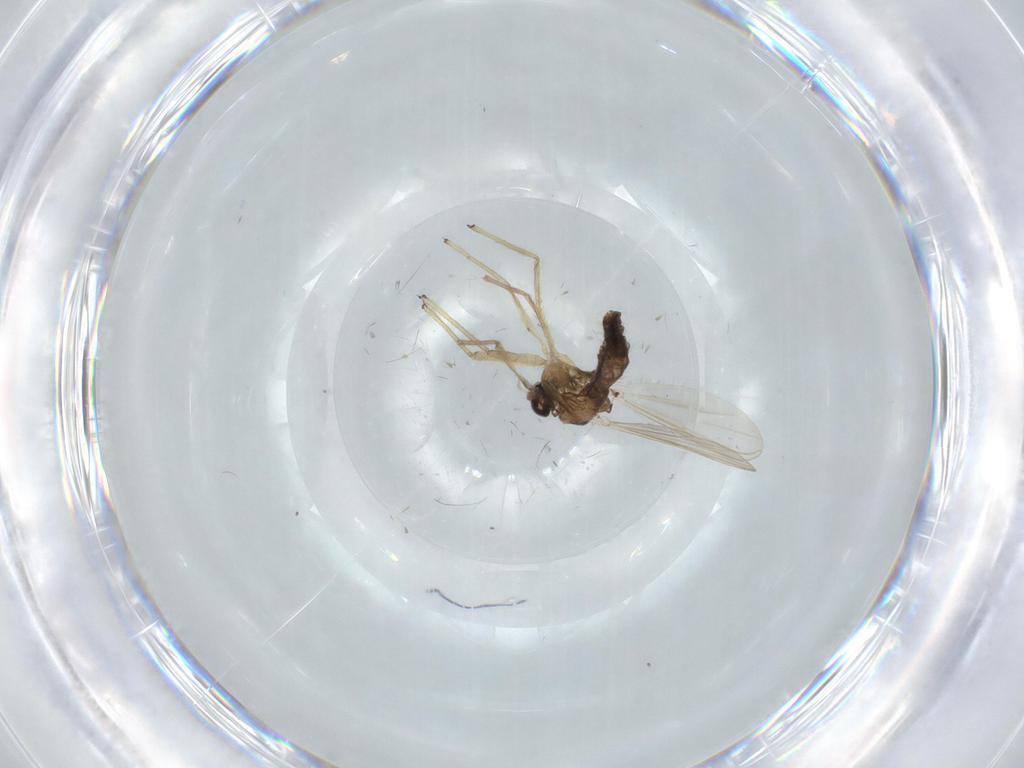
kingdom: Animalia
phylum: Arthropoda
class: Insecta
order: Diptera
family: Chironomidae
